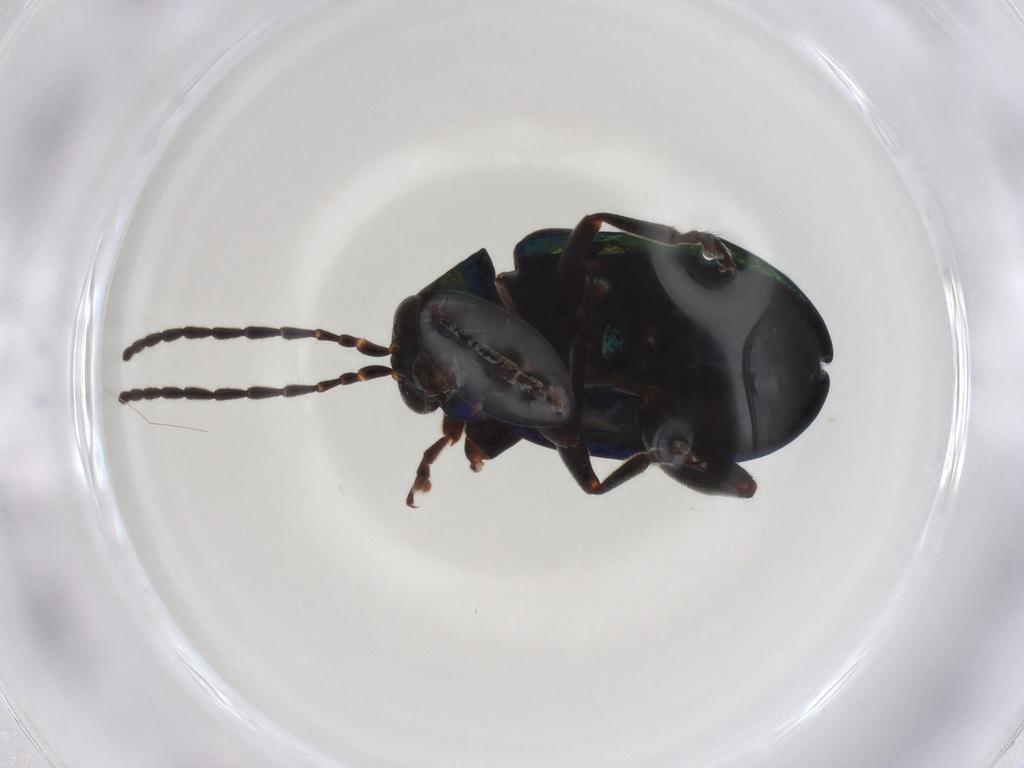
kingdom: Animalia
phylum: Arthropoda
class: Insecta
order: Coleoptera
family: Chrysomelidae
